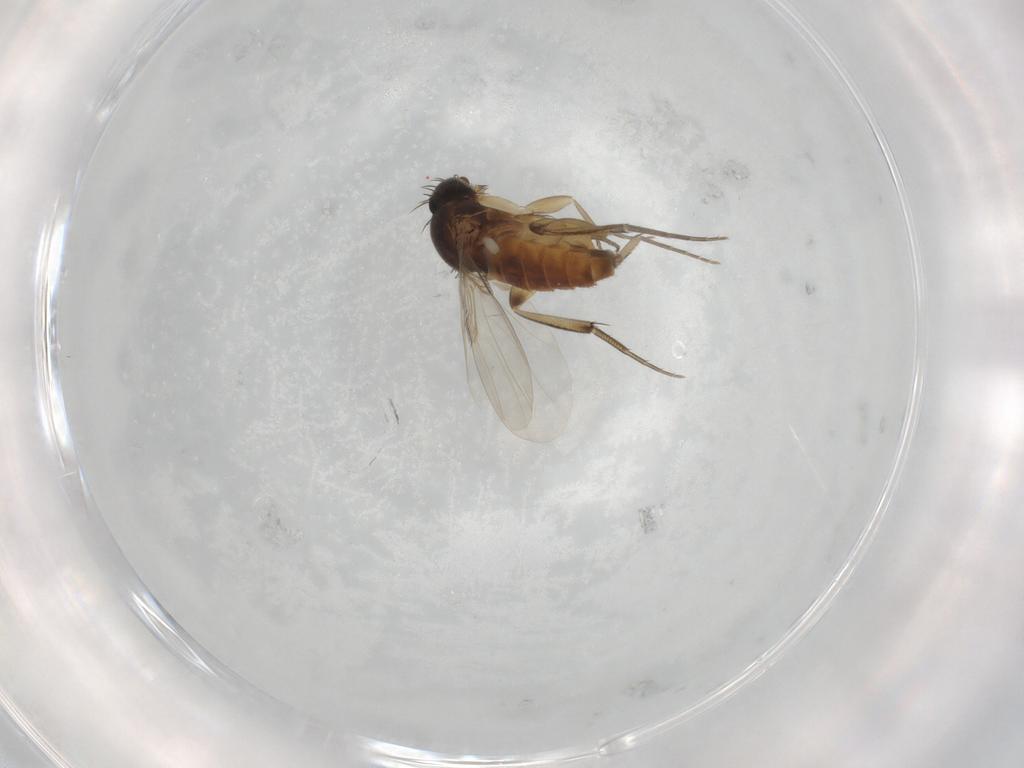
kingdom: Animalia
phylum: Arthropoda
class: Insecta
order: Diptera
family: Phoridae
